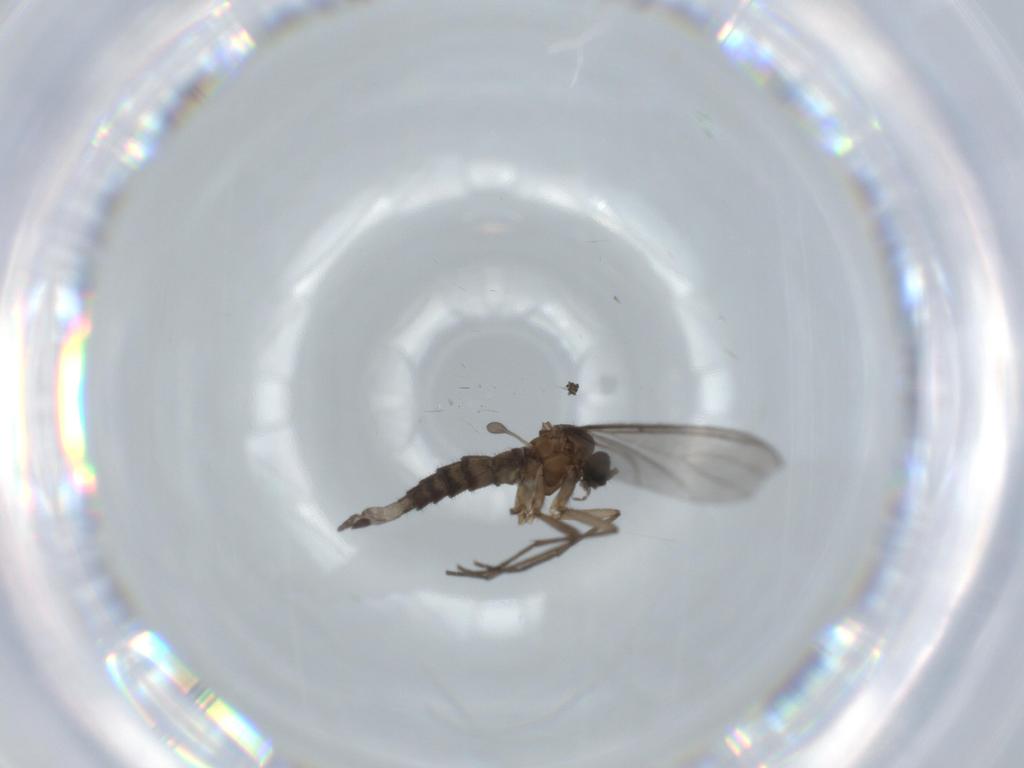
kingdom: Animalia
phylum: Arthropoda
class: Insecta
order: Diptera
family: Sciaridae
